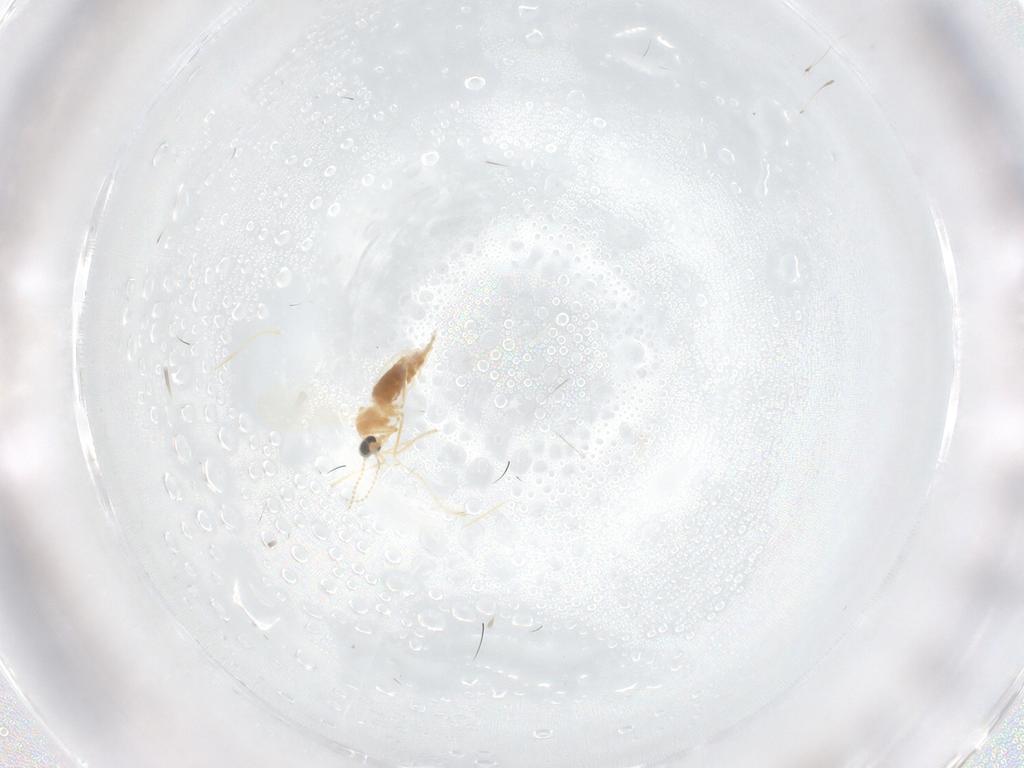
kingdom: Animalia
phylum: Arthropoda
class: Insecta
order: Diptera
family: Cecidomyiidae
